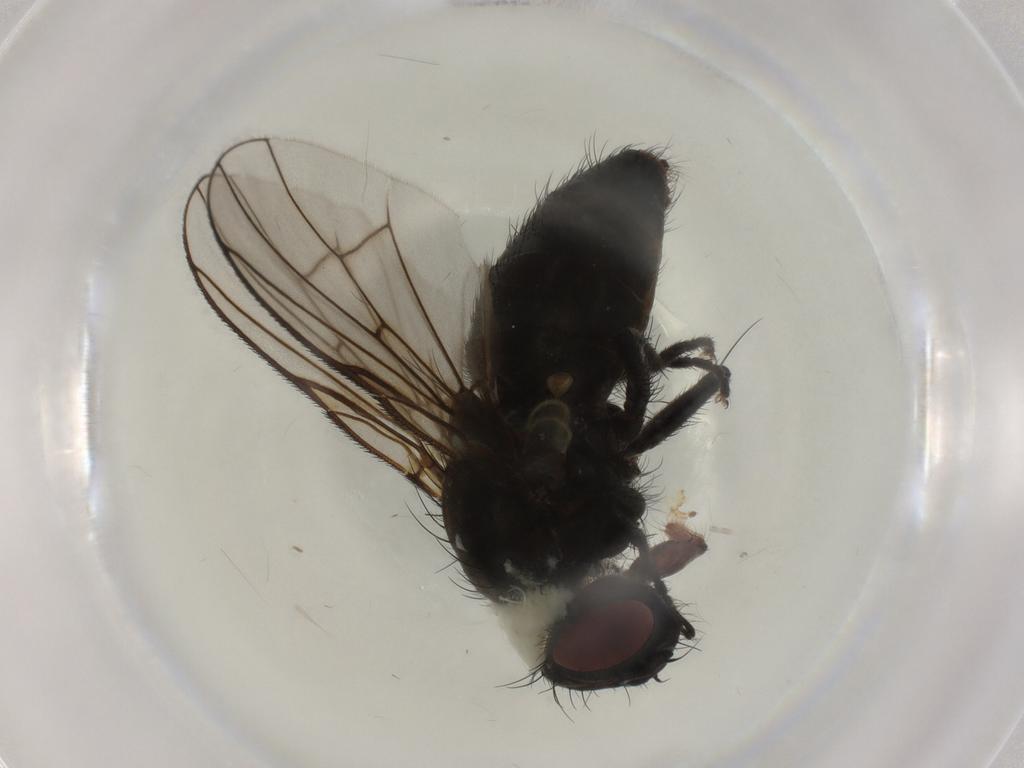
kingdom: Animalia
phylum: Arthropoda
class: Insecta
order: Diptera
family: Muscidae
